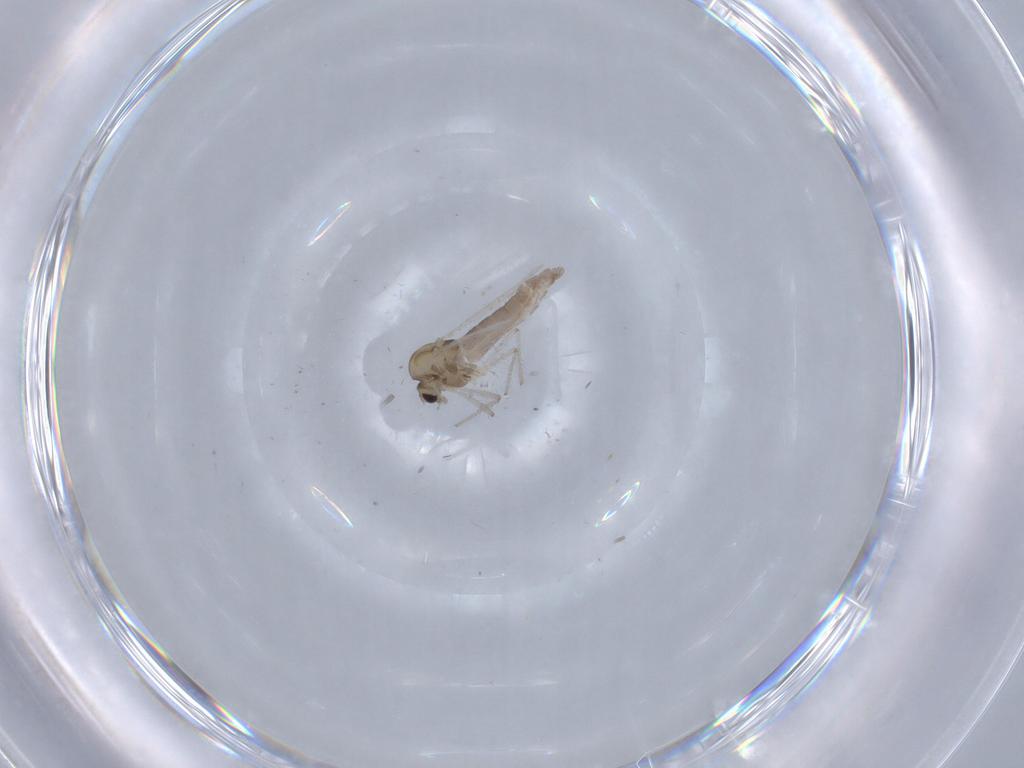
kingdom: Animalia
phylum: Arthropoda
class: Insecta
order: Diptera
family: Chironomidae
